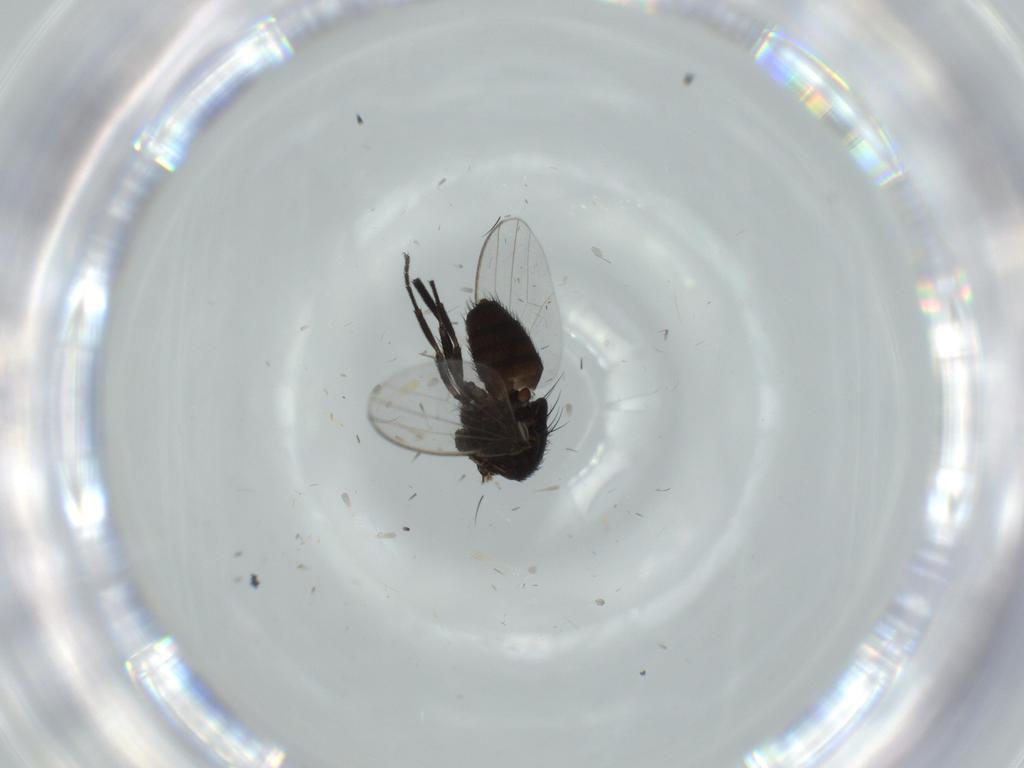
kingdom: Animalia
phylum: Arthropoda
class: Insecta
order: Diptera
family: Milichiidae
